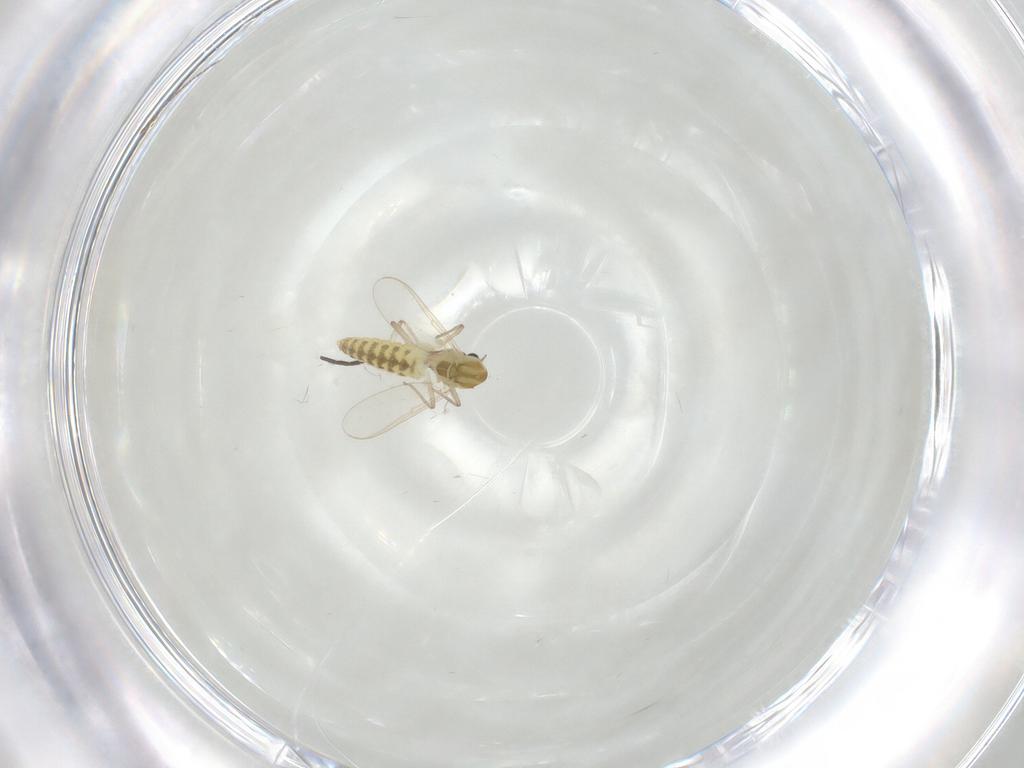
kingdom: Animalia
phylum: Arthropoda
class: Insecta
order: Diptera
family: Chironomidae
